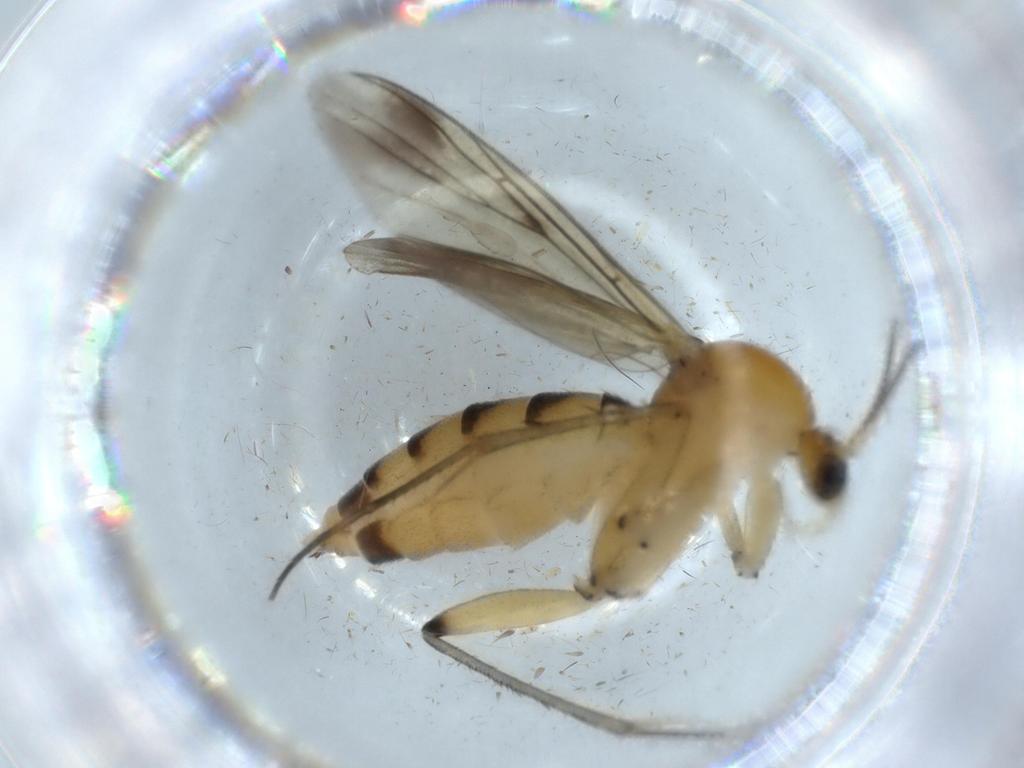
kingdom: Animalia
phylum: Arthropoda
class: Insecta
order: Diptera
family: Mycetophilidae
